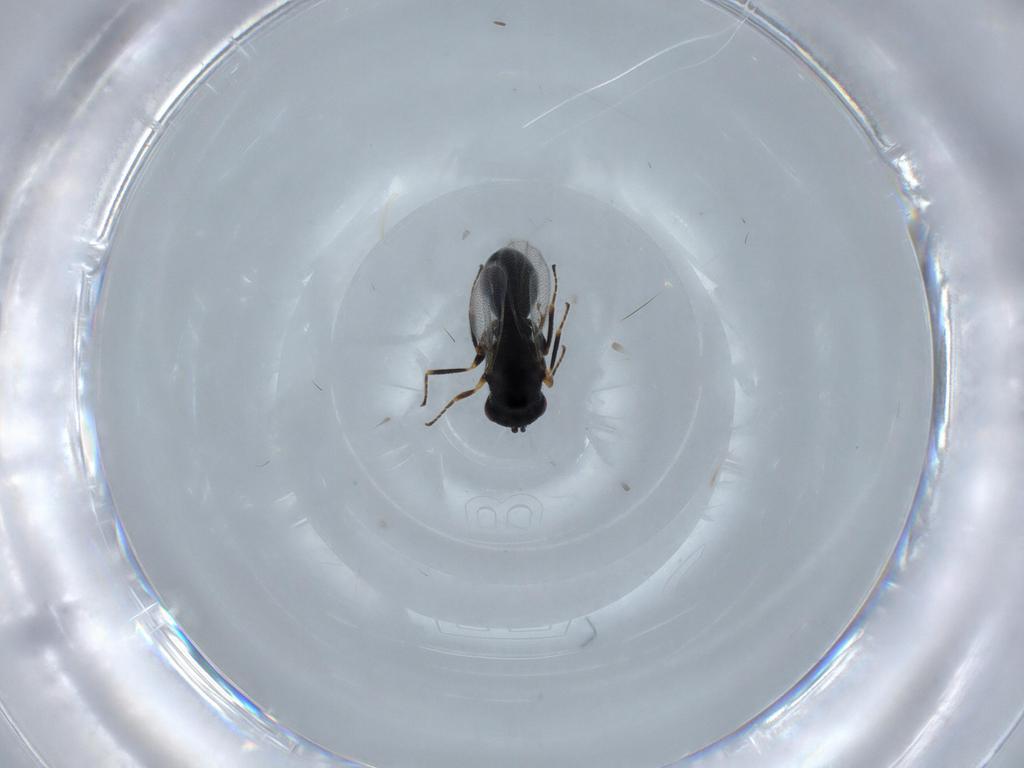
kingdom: Animalia
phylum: Arthropoda
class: Insecta
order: Hymenoptera
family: Eurytomidae
